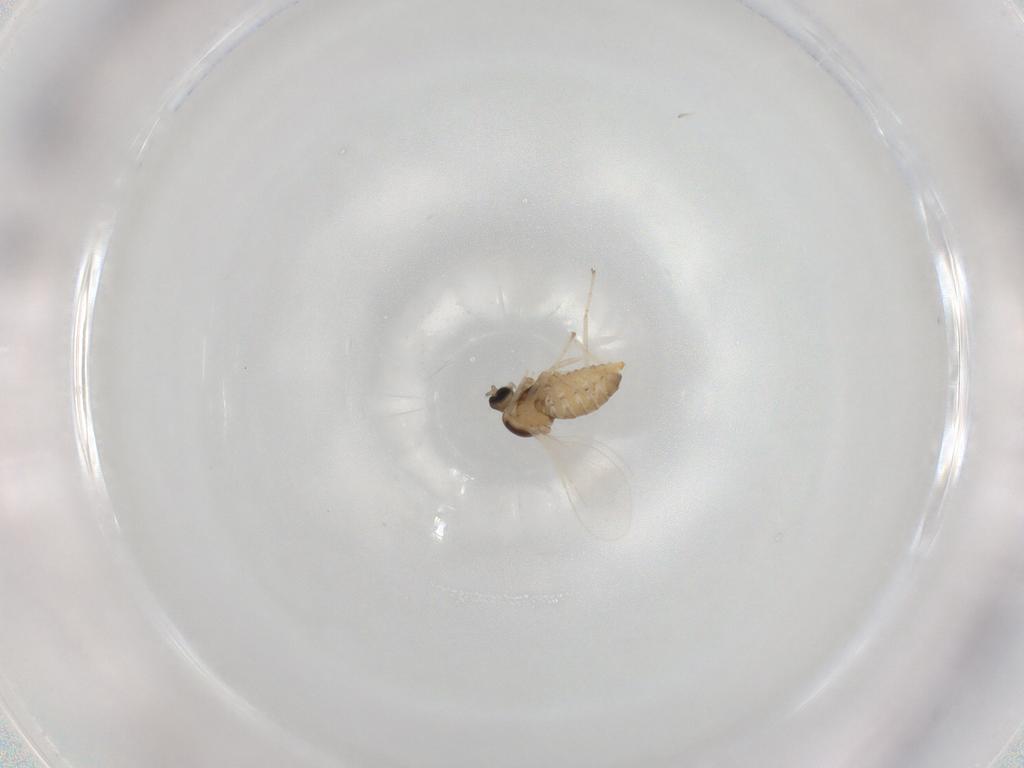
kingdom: Animalia
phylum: Arthropoda
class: Insecta
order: Diptera
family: Cecidomyiidae
